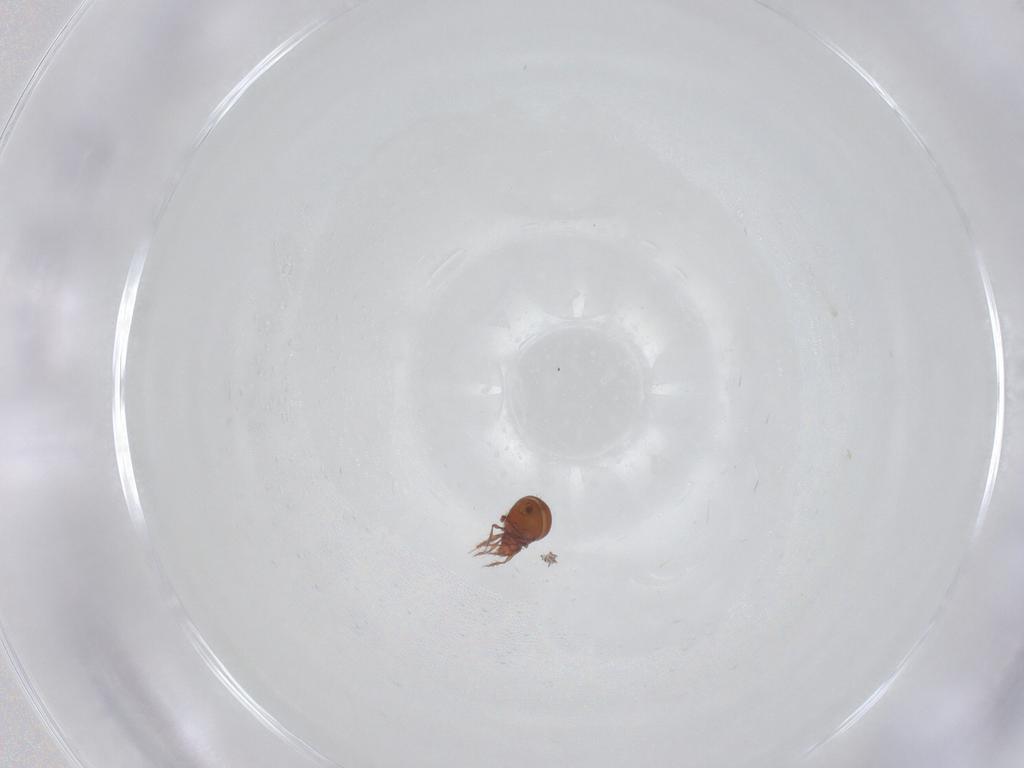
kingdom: Animalia
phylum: Arthropoda
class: Arachnida
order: Sarcoptiformes
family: Oppiidae
